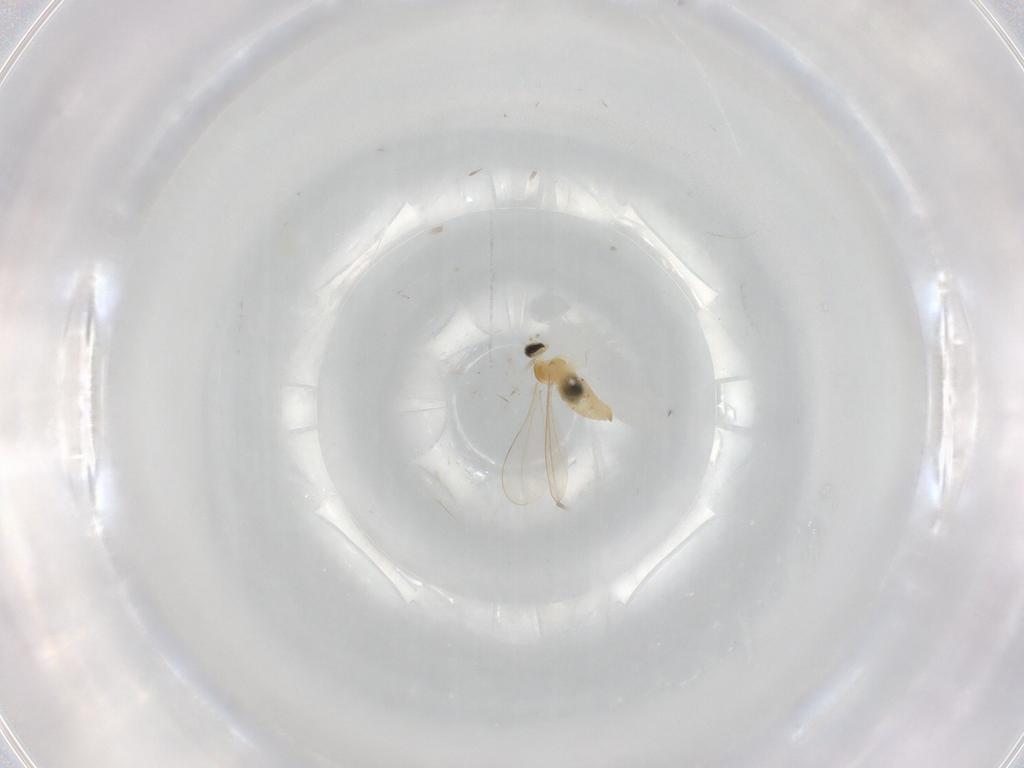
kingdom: Animalia
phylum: Arthropoda
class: Insecta
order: Diptera
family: Cecidomyiidae
